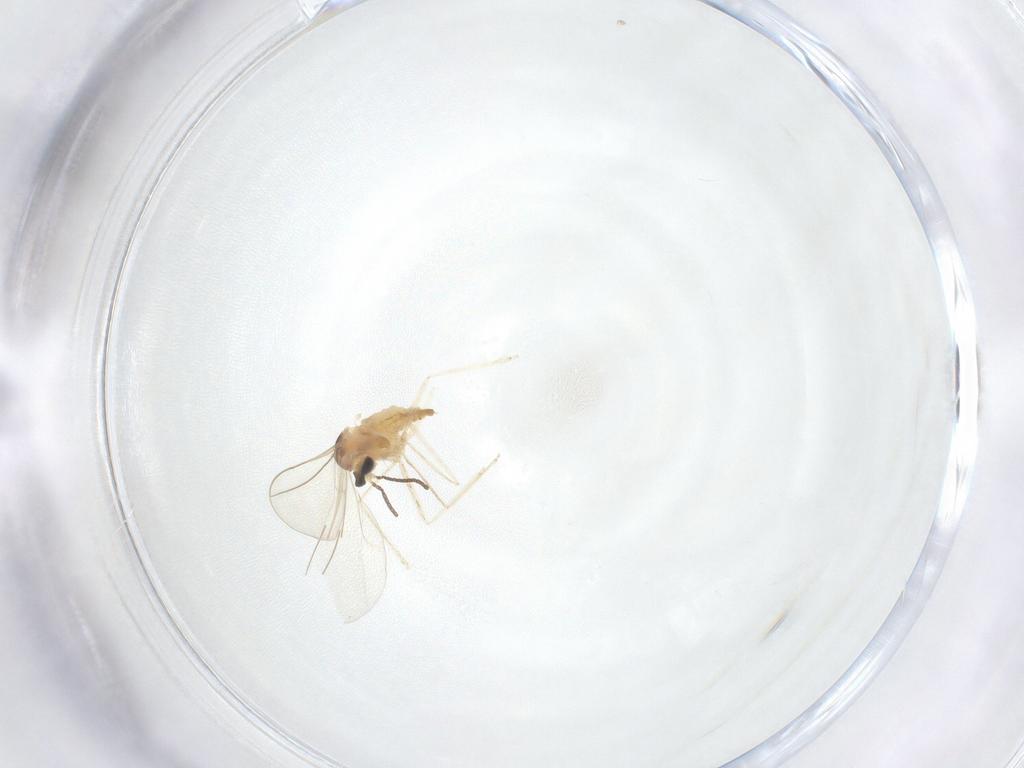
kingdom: Animalia
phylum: Arthropoda
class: Insecta
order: Diptera
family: Cecidomyiidae
